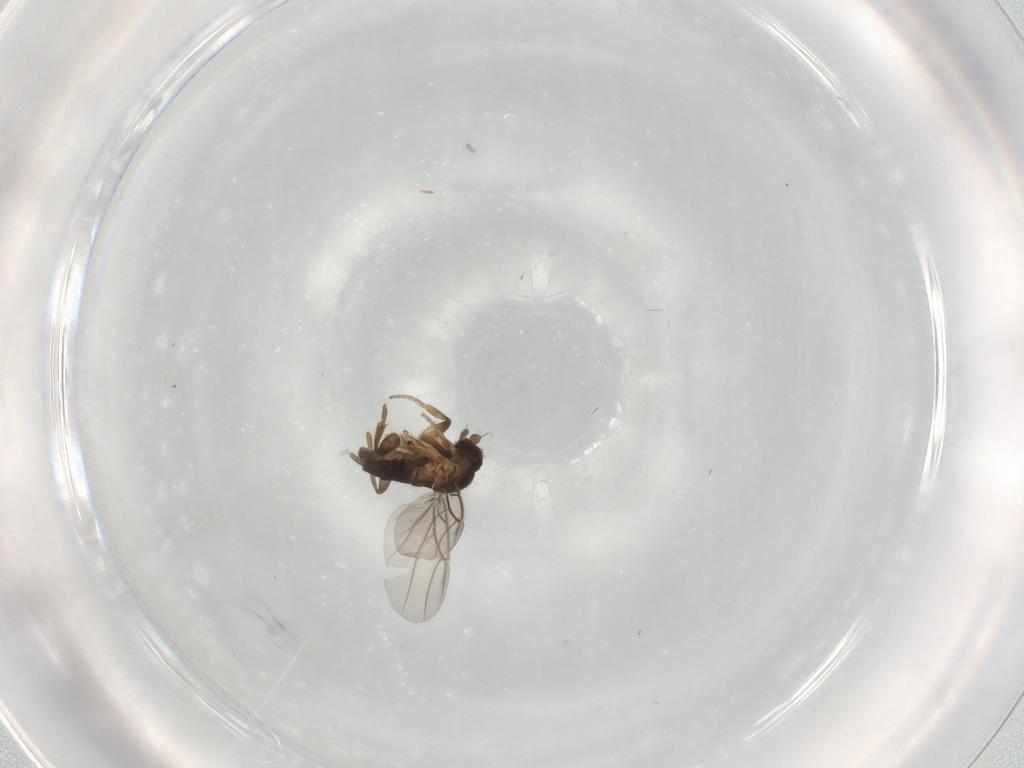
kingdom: Animalia
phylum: Arthropoda
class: Insecta
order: Diptera
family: Phoridae
